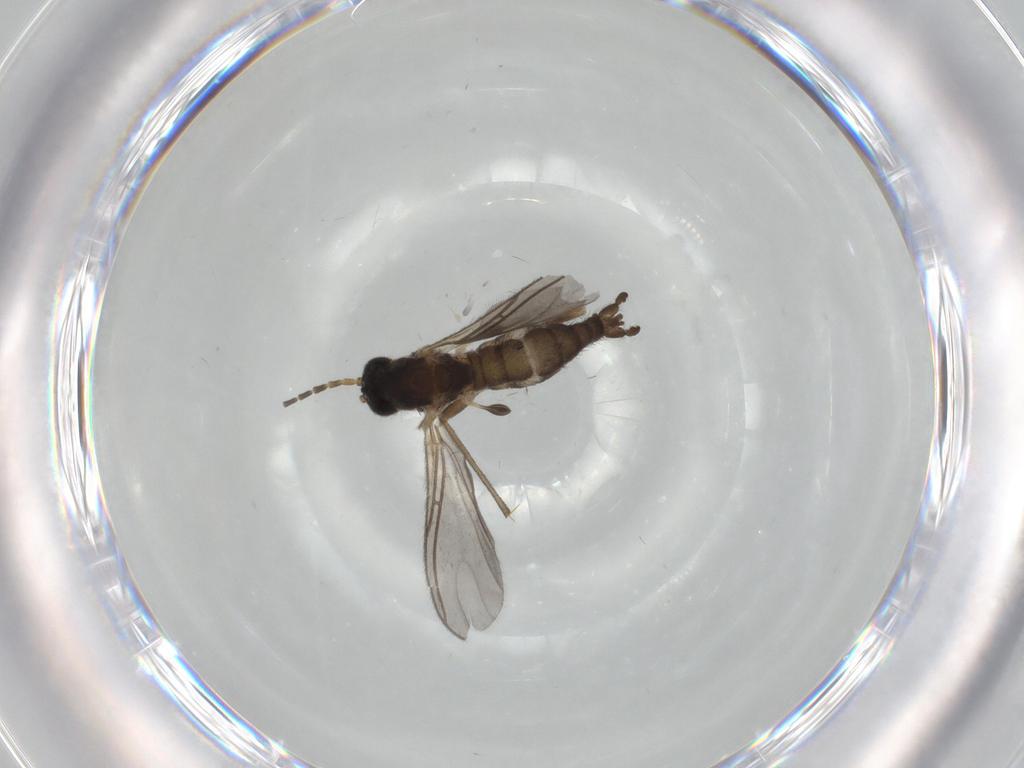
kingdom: Animalia
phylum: Arthropoda
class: Insecta
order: Diptera
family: Sciaridae
